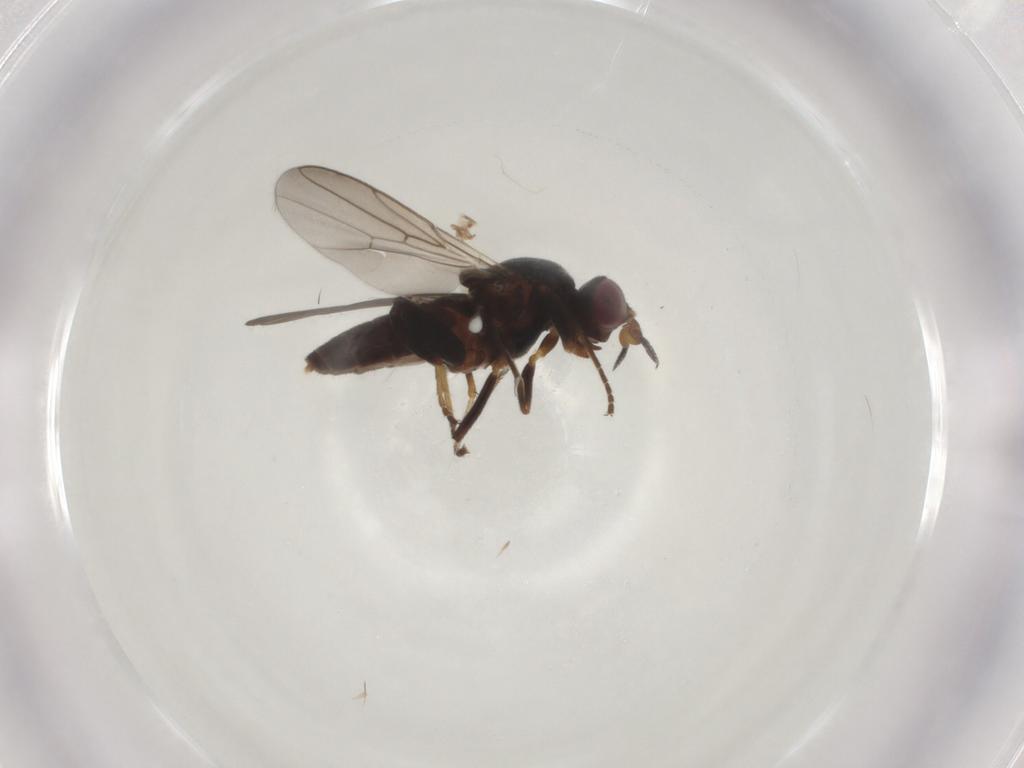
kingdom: Animalia
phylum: Arthropoda
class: Insecta
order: Diptera
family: Chloropidae
